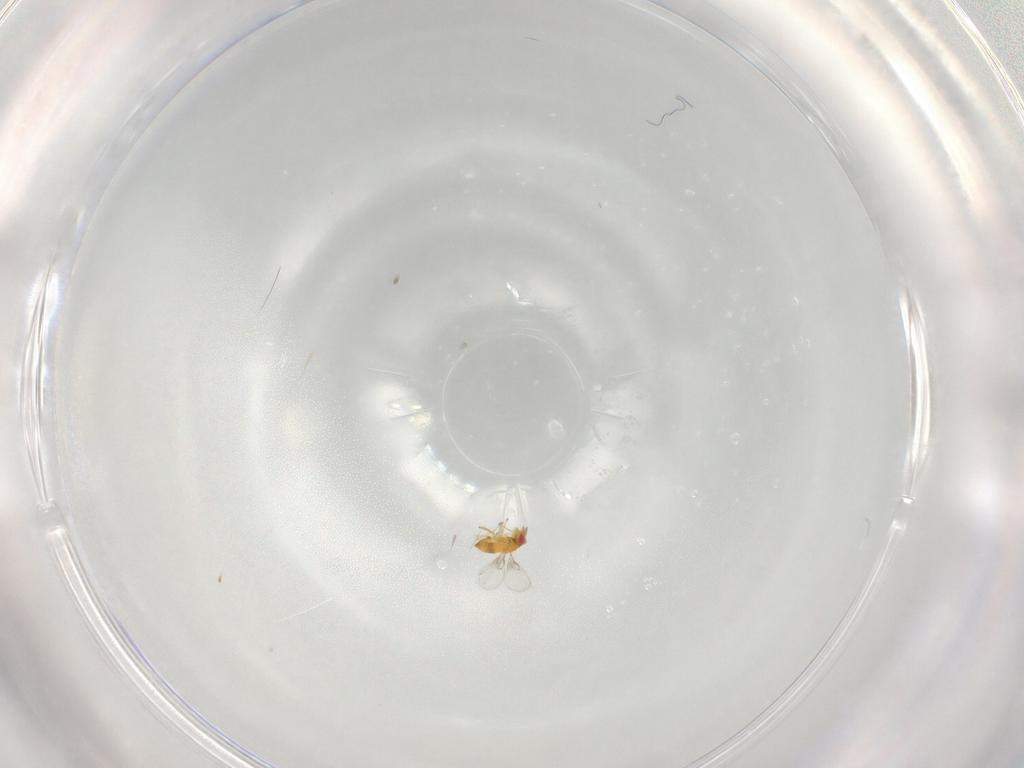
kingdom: Animalia
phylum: Arthropoda
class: Insecta
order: Hymenoptera
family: Trichogrammatidae
